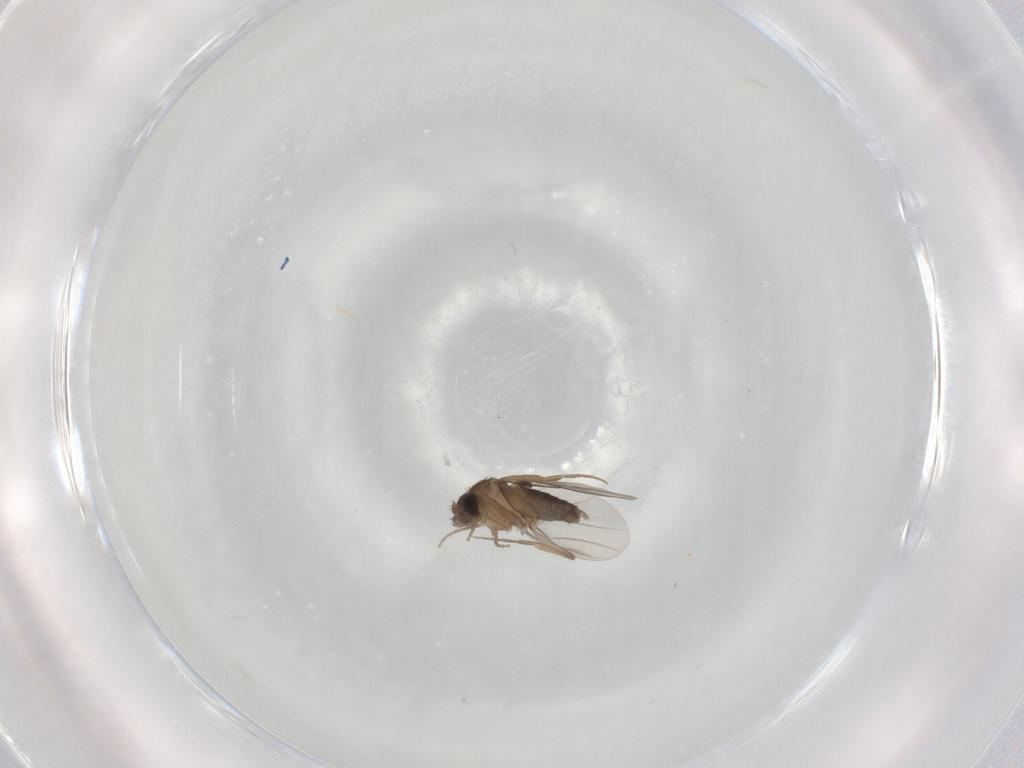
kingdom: Animalia
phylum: Arthropoda
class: Insecta
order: Diptera
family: Phoridae
